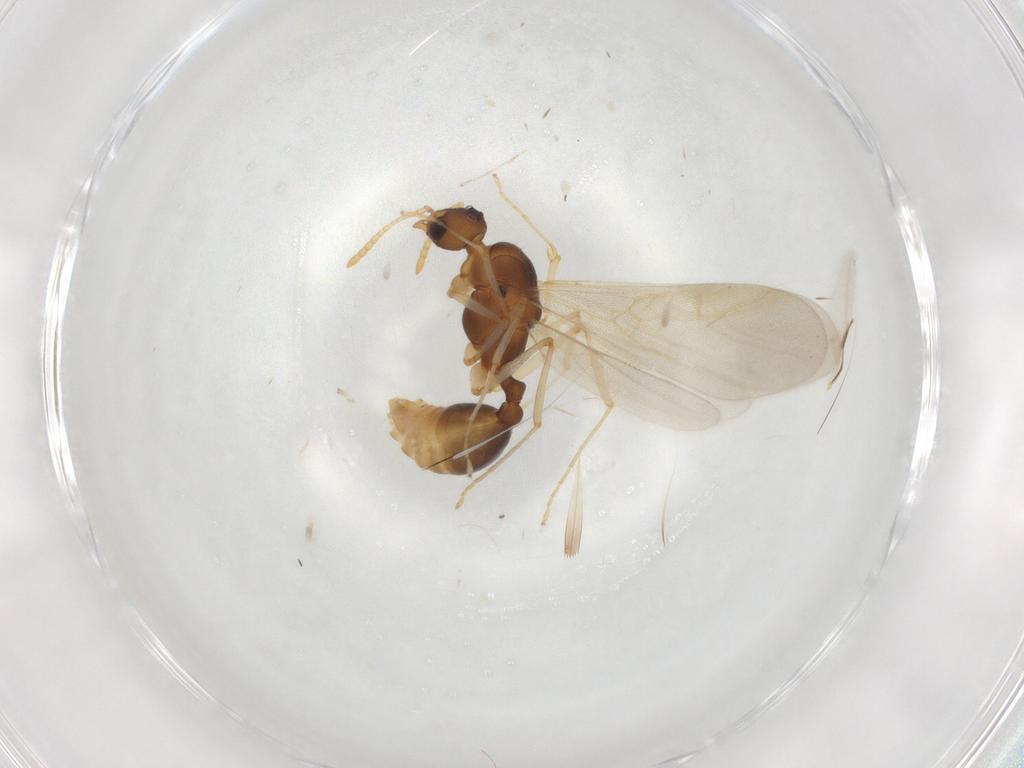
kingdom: Animalia
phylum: Arthropoda
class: Insecta
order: Hymenoptera
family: Formicidae
